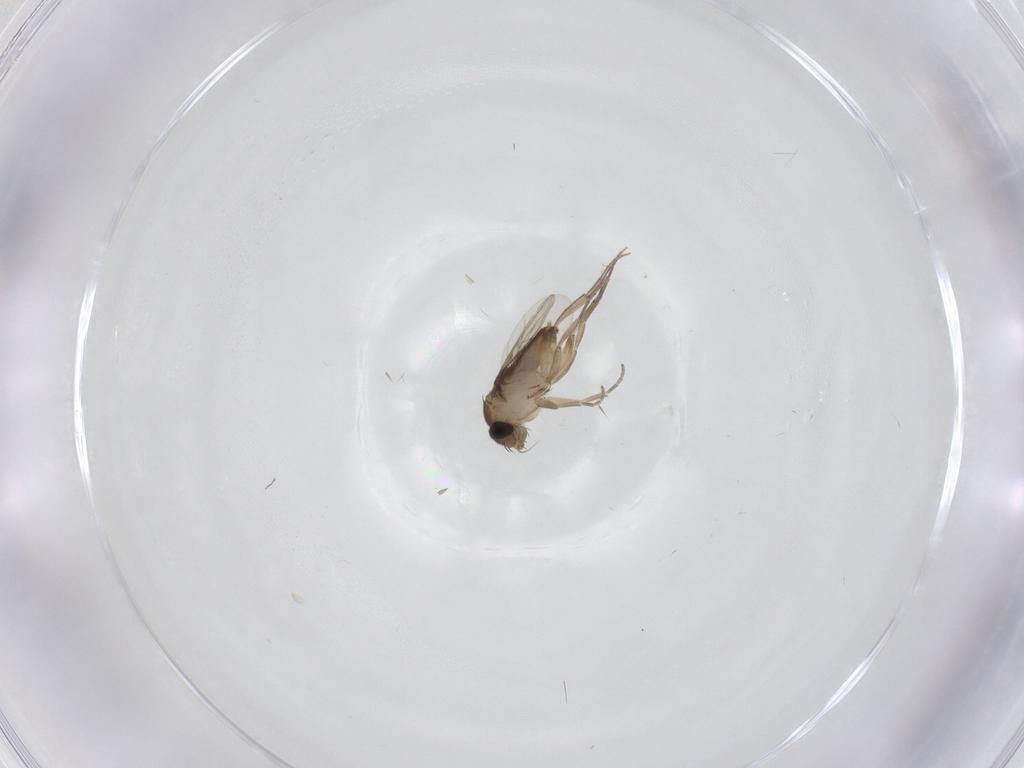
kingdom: Animalia
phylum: Arthropoda
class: Insecta
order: Diptera
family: Phoridae
